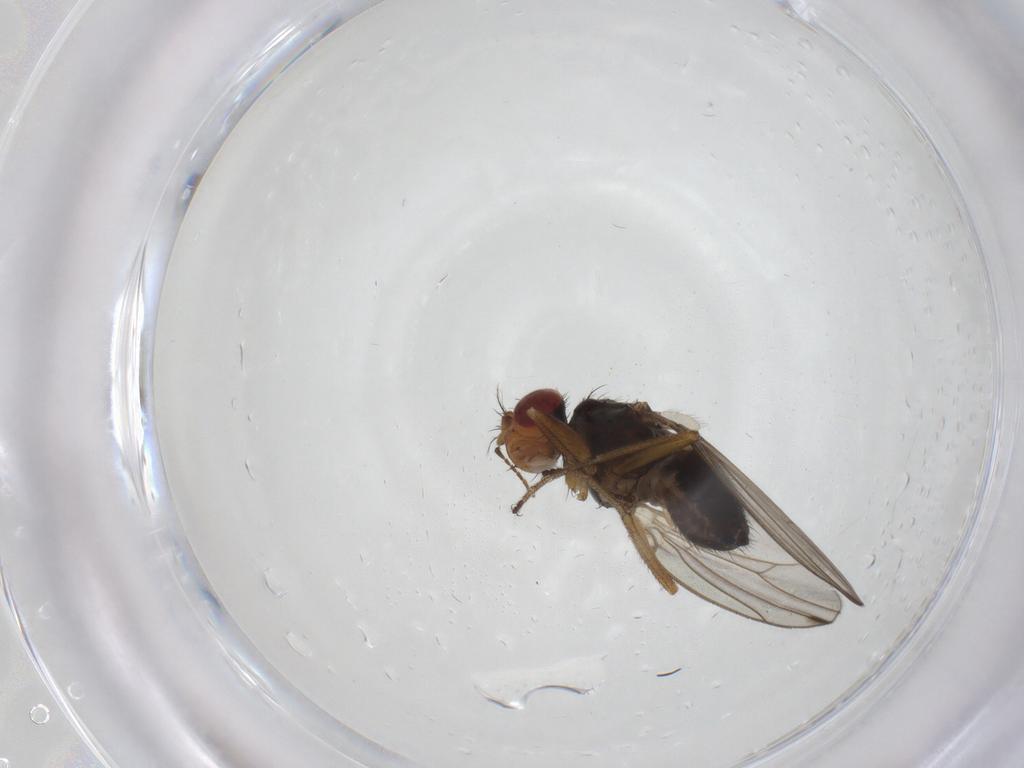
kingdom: Animalia
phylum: Arthropoda
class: Insecta
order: Diptera
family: Drosophilidae
